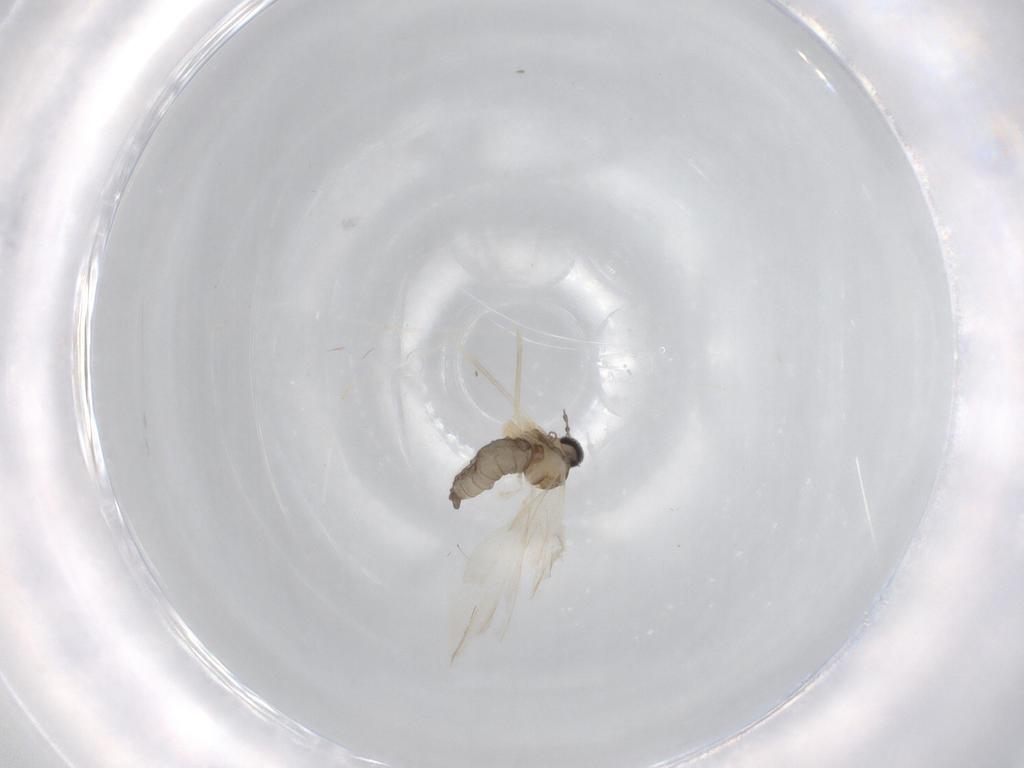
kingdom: Animalia
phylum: Arthropoda
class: Insecta
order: Diptera
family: Cecidomyiidae
